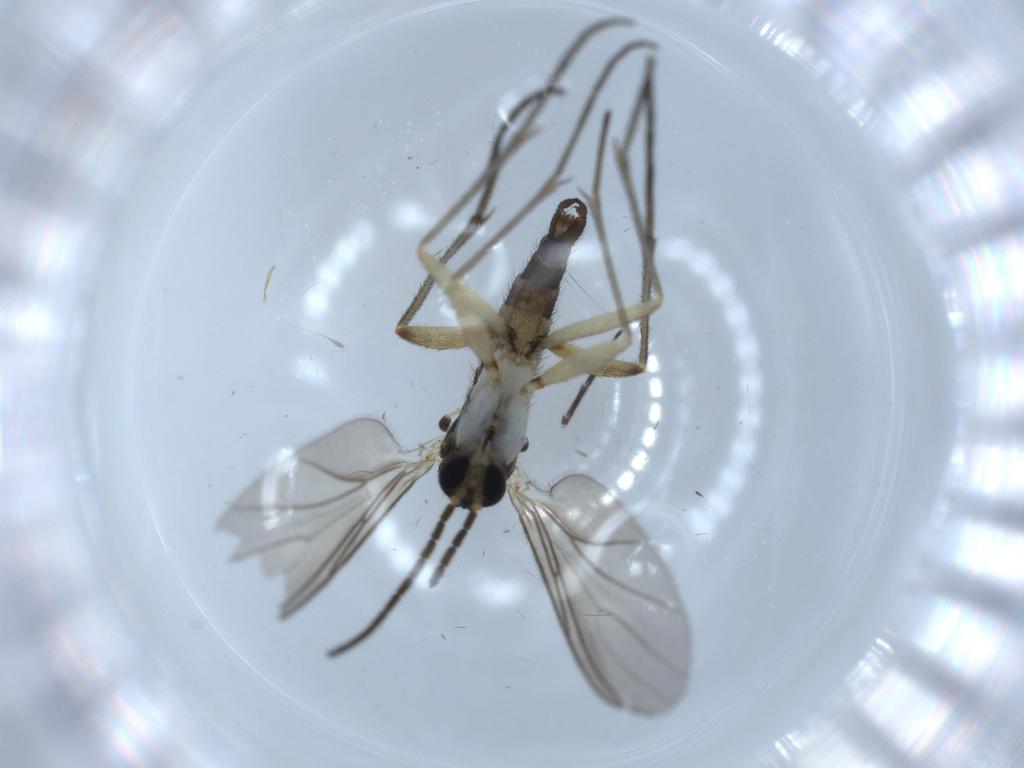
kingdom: Animalia
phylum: Arthropoda
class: Insecta
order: Diptera
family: Sciaridae
